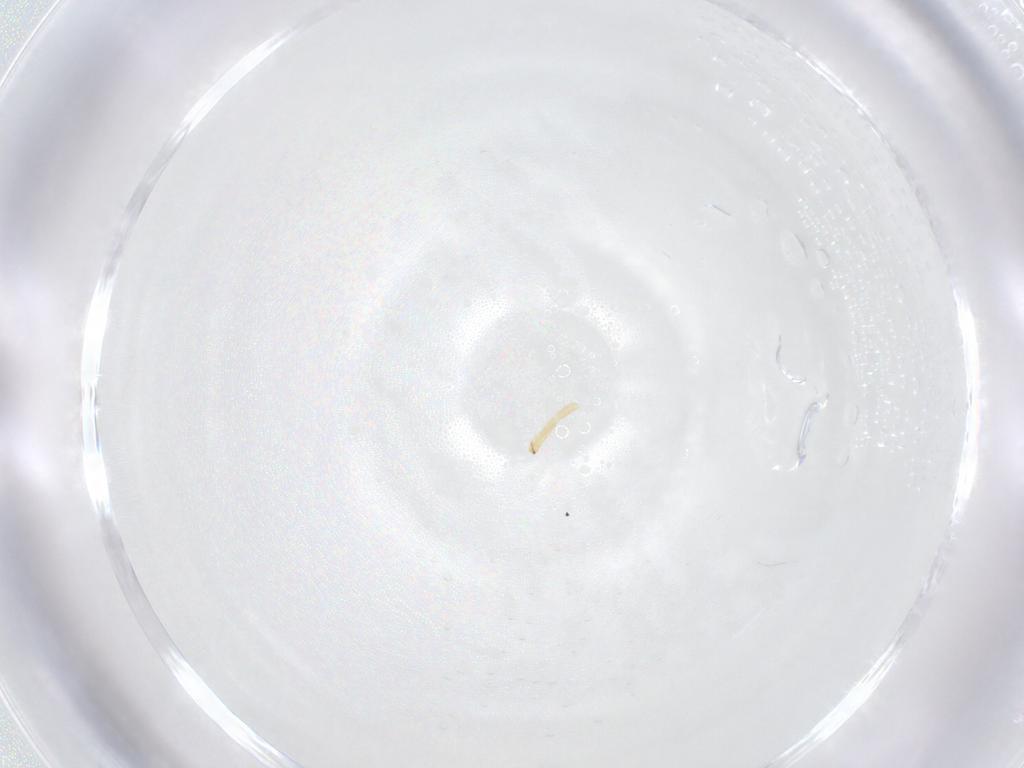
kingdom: Animalia
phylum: Arthropoda
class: Insecta
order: Diptera
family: Tachinidae
